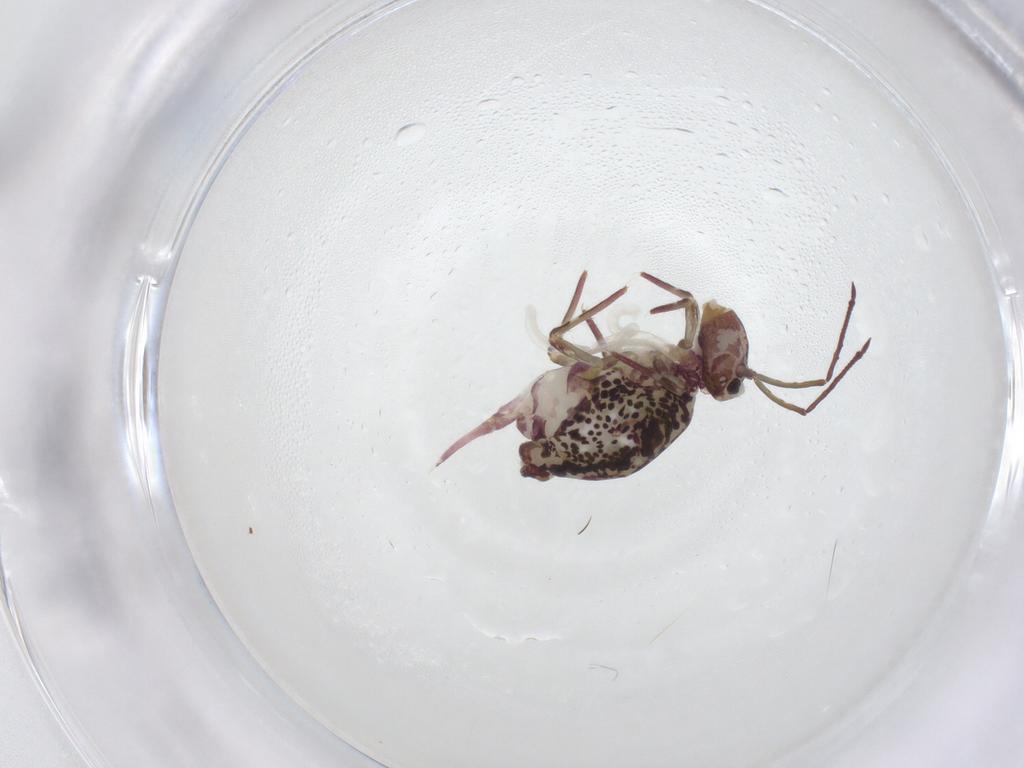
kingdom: Animalia
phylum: Arthropoda
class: Collembola
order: Symphypleona
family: Dicyrtomidae
